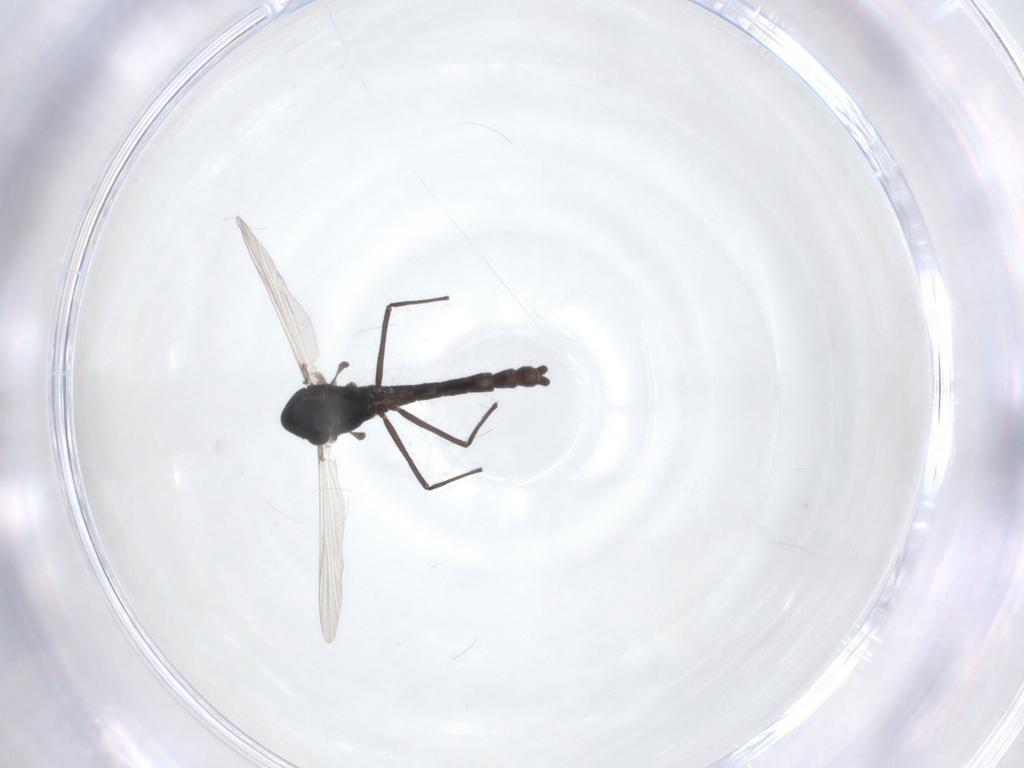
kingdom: Animalia
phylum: Arthropoda
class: Insecta
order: Diptera
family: Chironomidae
